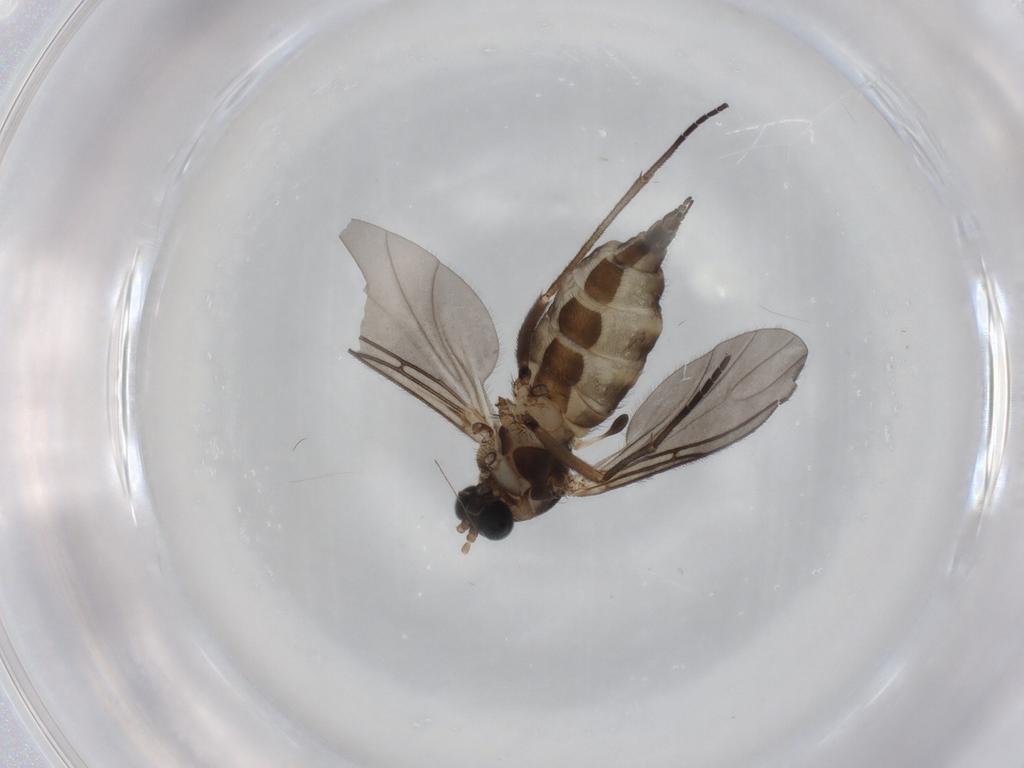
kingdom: Animalia
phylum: Arthropoda
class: Insecta
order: Diptera
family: Sciaridae
